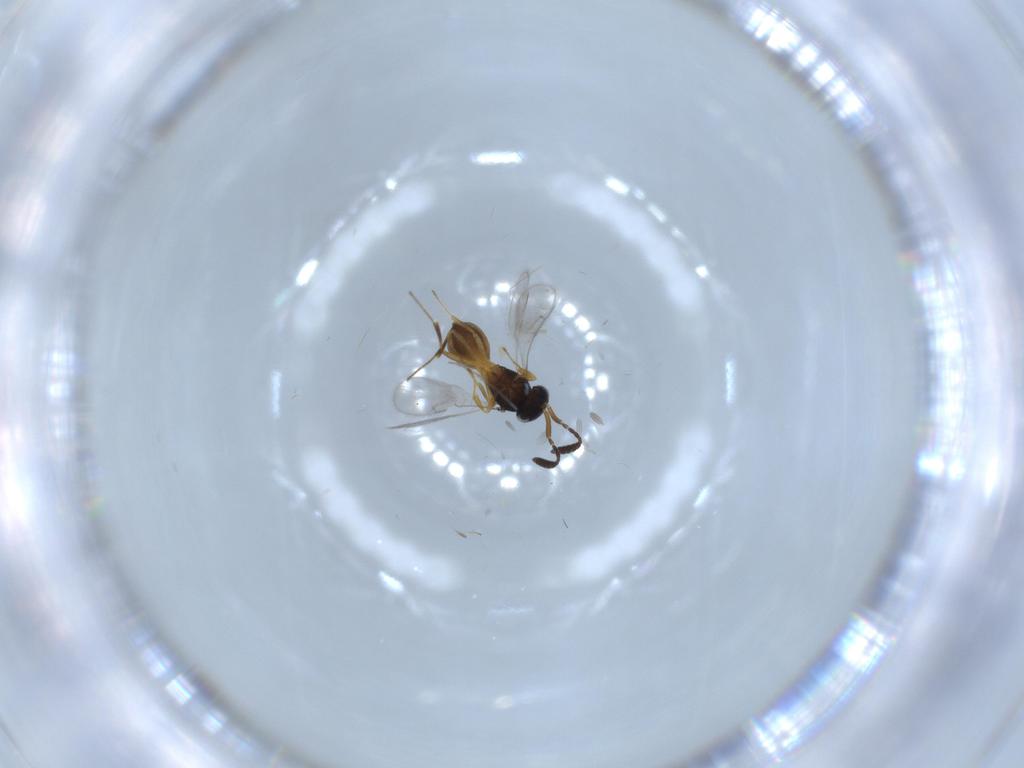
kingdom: Animalia
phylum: Arthropoda
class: Insecta
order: Hymenoptera
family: Scelionidae
